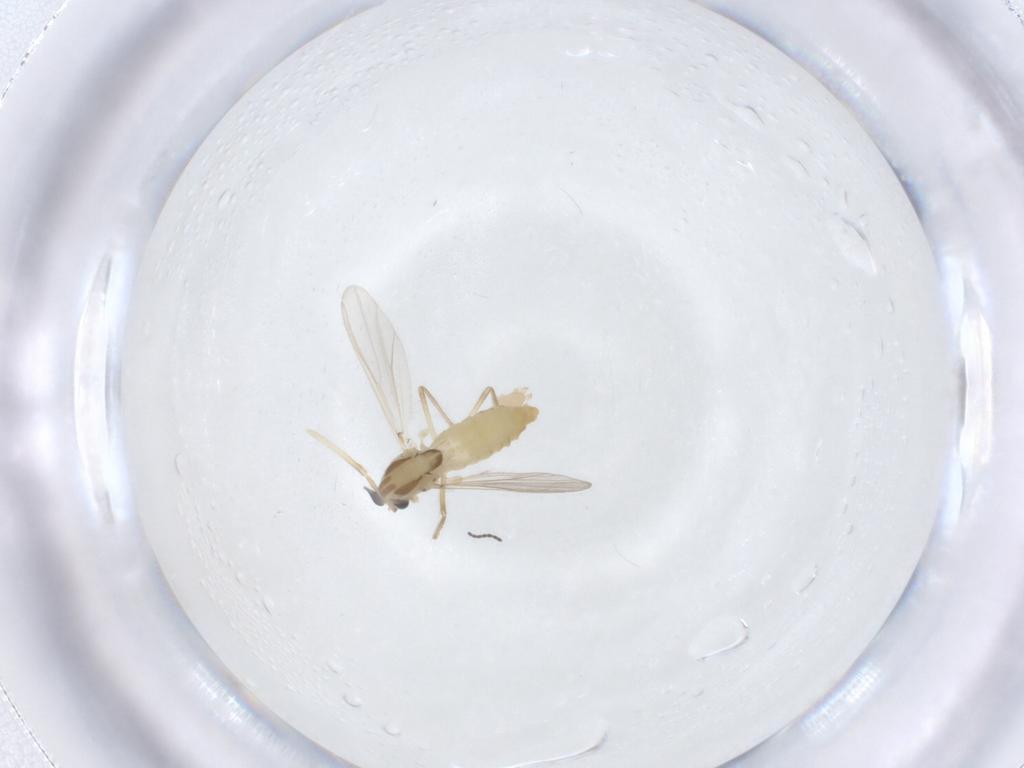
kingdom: Animalia
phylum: Arthropoda
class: Insecta
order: Diptera
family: Chironomidae
